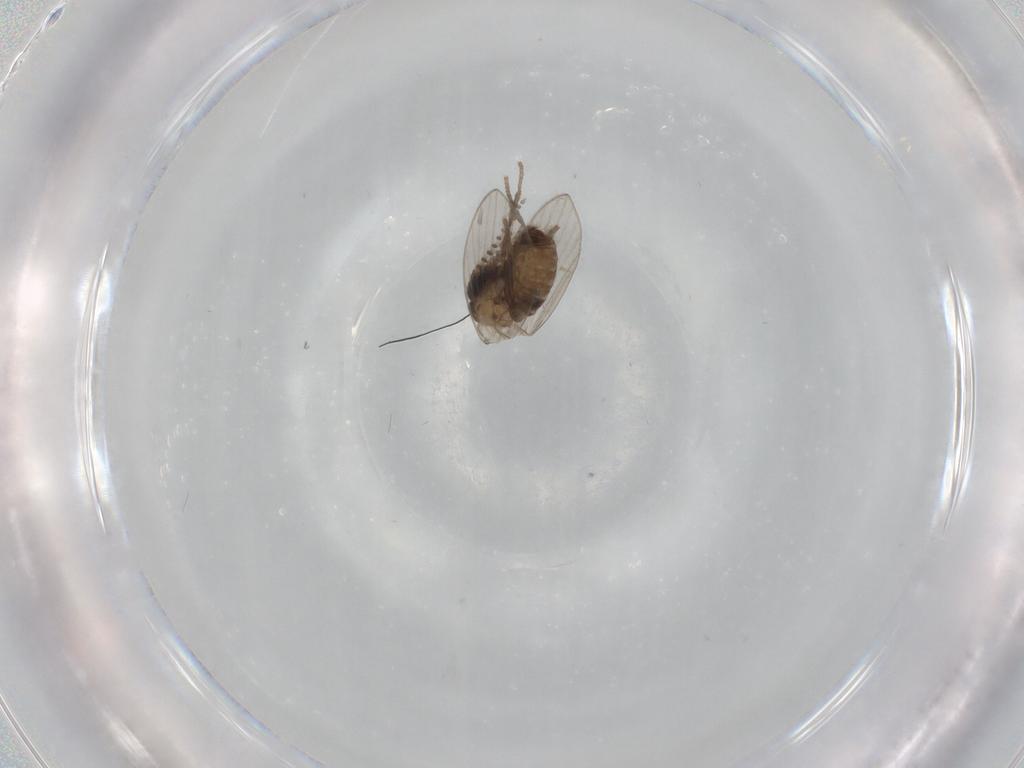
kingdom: Animalia
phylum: Arthropoda
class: Insecta
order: Diptera
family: Psychodidae
